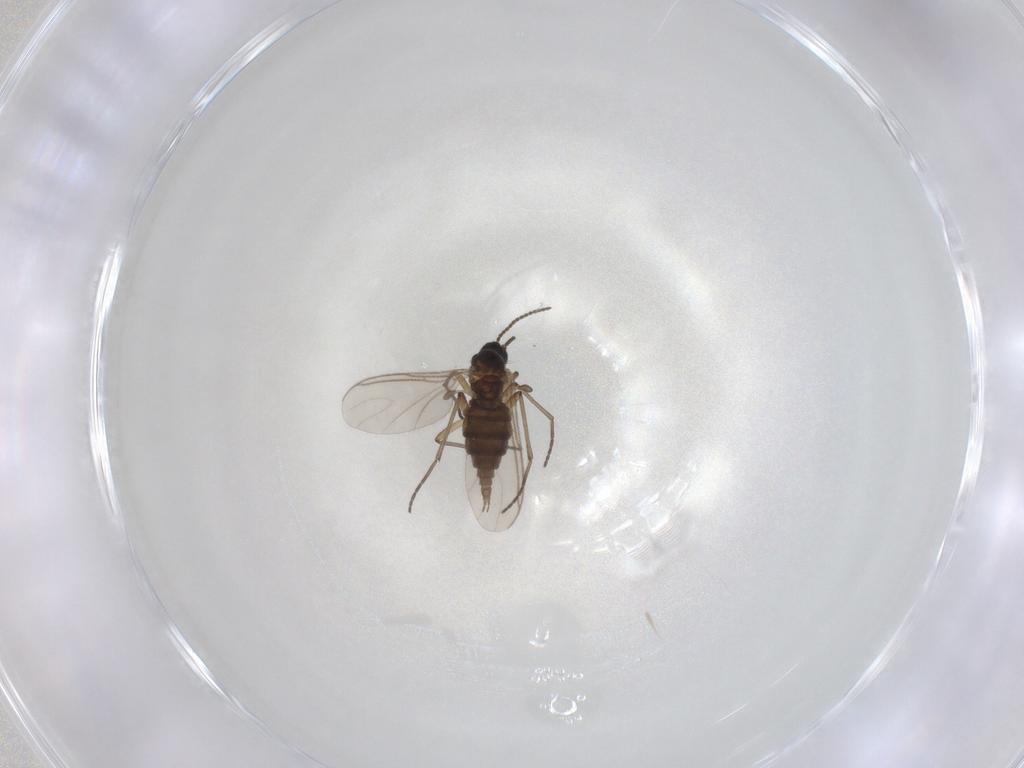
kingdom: Animalia
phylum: Arthropoda
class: Insecta
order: Diptera
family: Sciaridae
